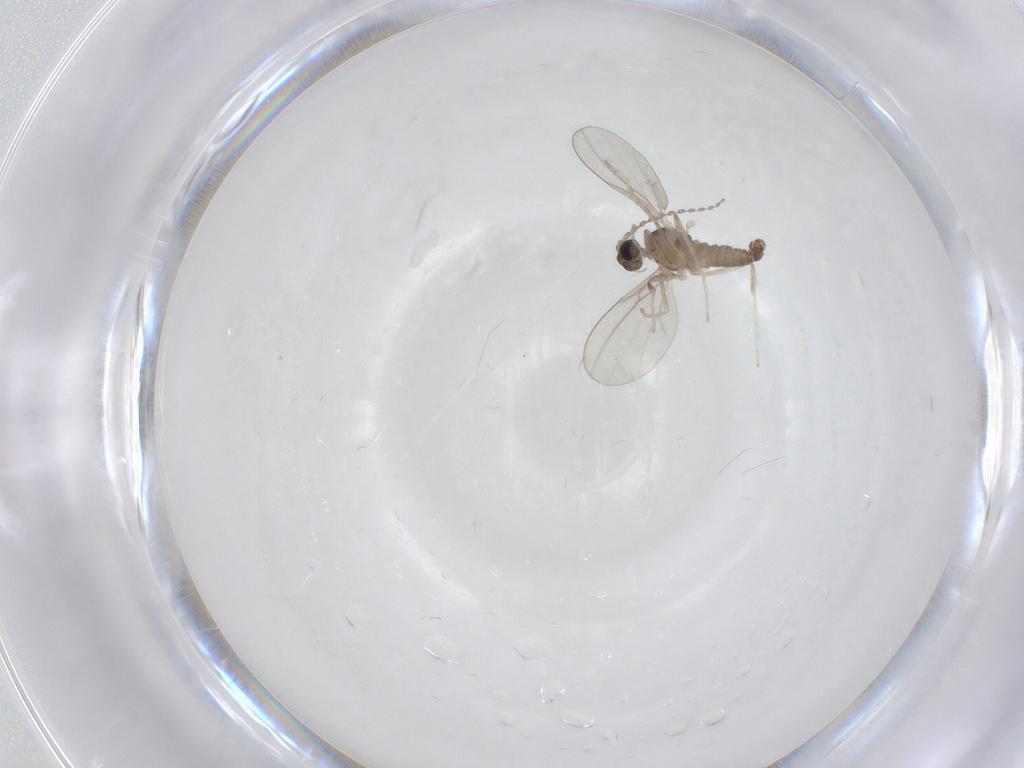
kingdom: Animalia
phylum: Arthropoda
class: Insecta
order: Diptera
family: Cecidomyiidae
